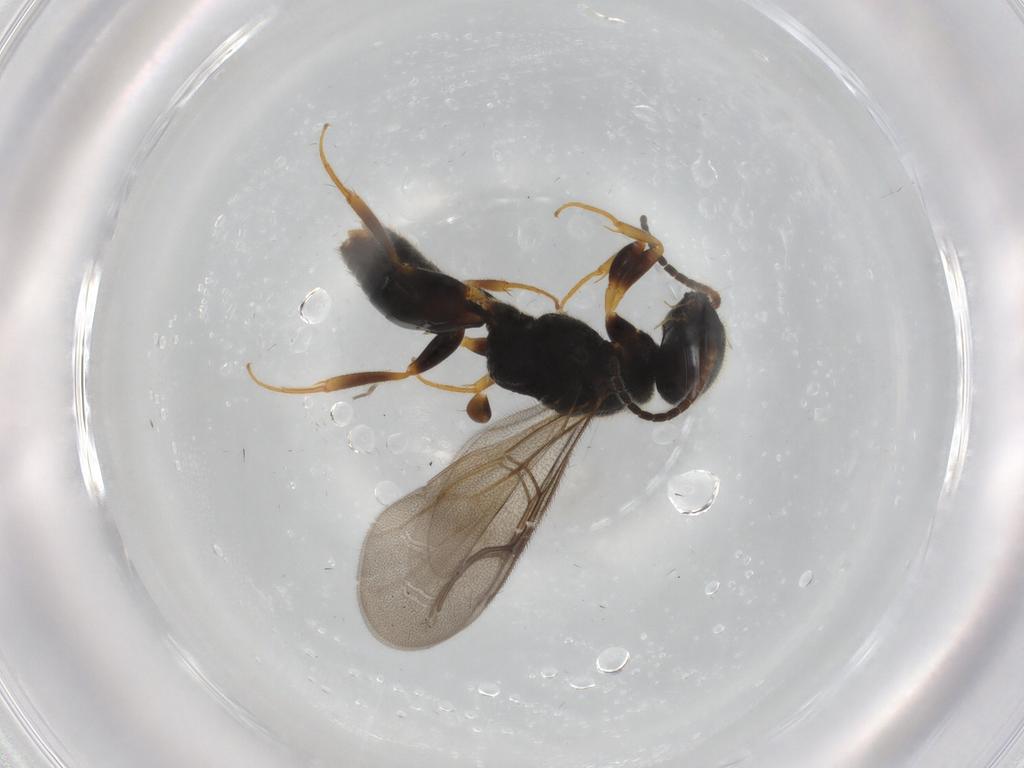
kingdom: Animalia
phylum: Arthropoda
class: Insecta
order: Hymenoptera
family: Bethylidae
